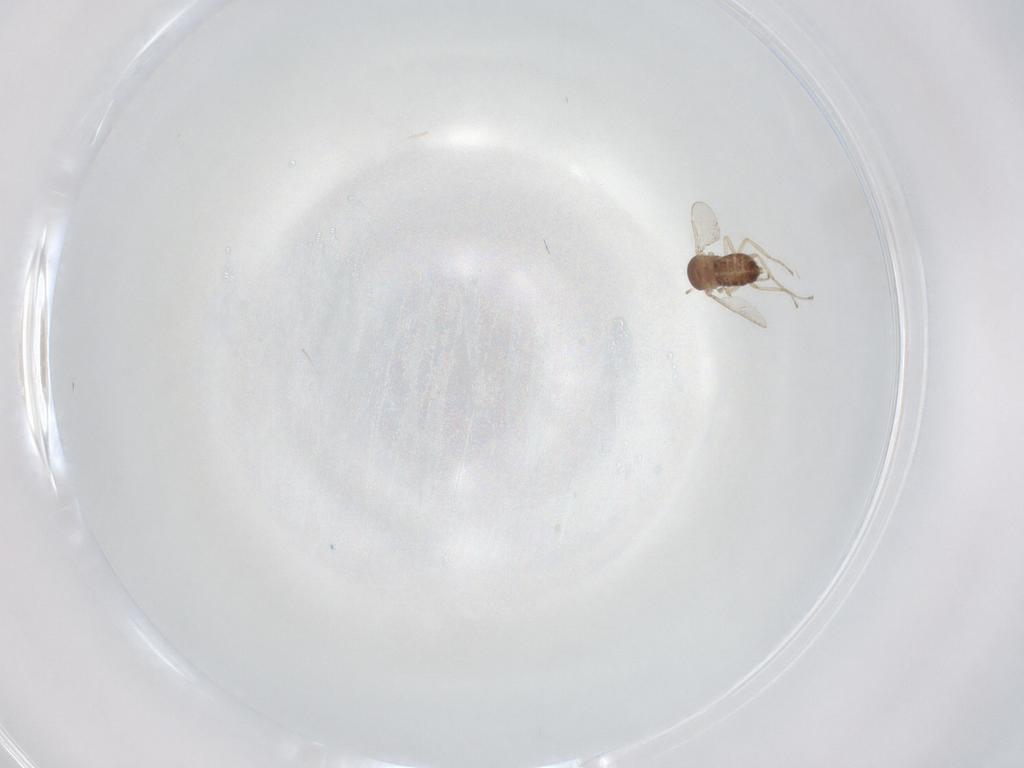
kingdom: Animalia
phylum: Arthropoda
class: Insecta
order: Diptera
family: Ceratopogonidae
